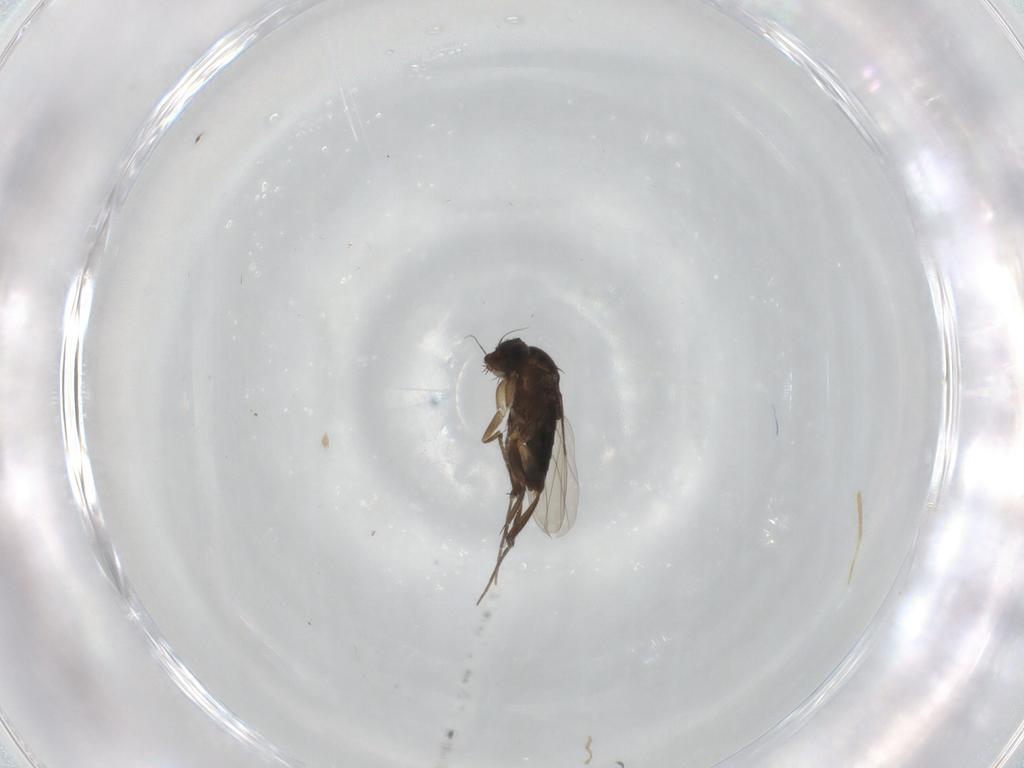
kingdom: Animalia
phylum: Arthropoda
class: Insecta
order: Diptera
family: Phoridae
